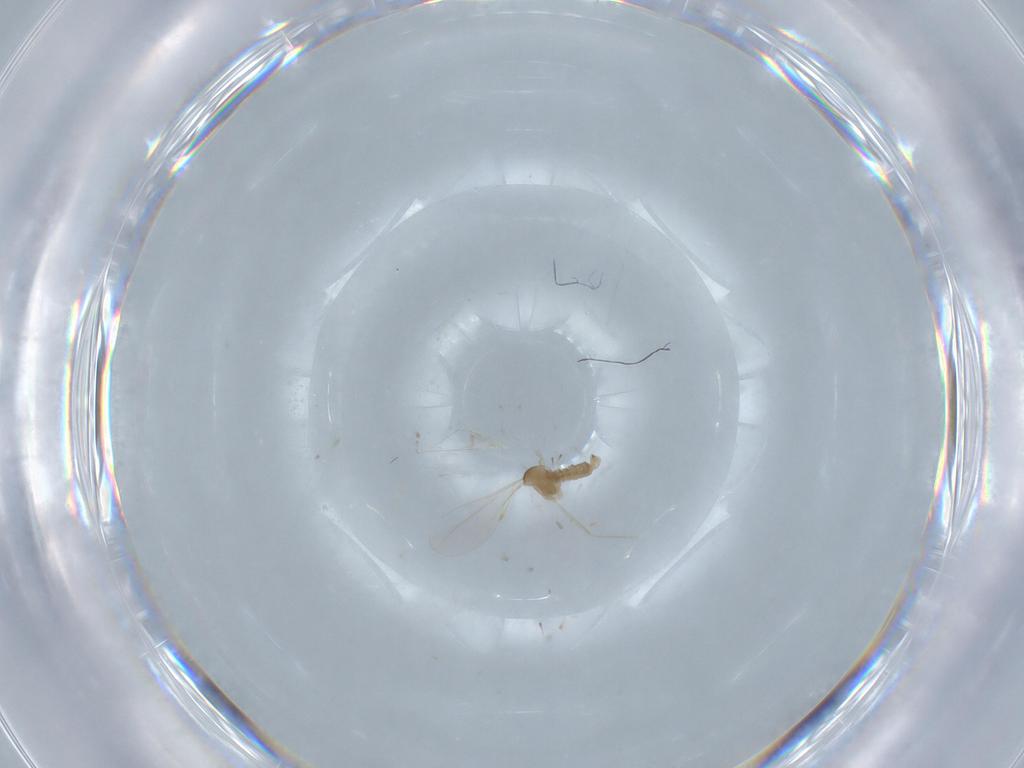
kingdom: Animalia
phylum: Arthropoda
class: Insecta
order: Diptera
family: Cecidomyiidae
